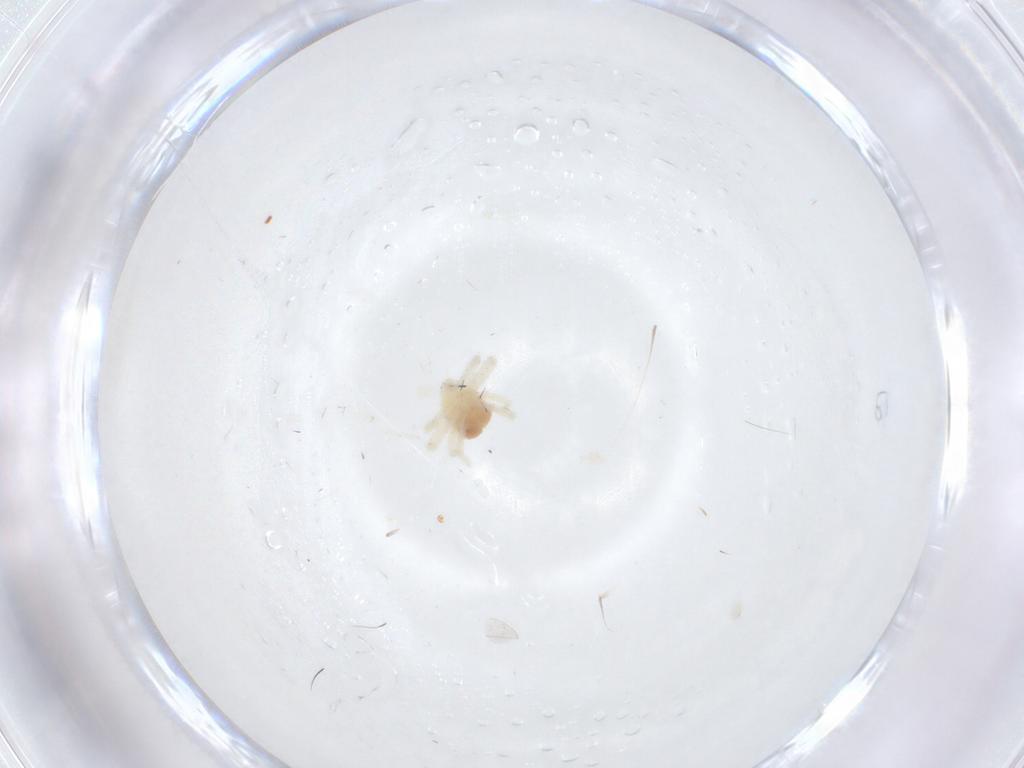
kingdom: Animalia
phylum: Arthropoda
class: Arachnida
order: Trombidiformes
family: Anystidae
